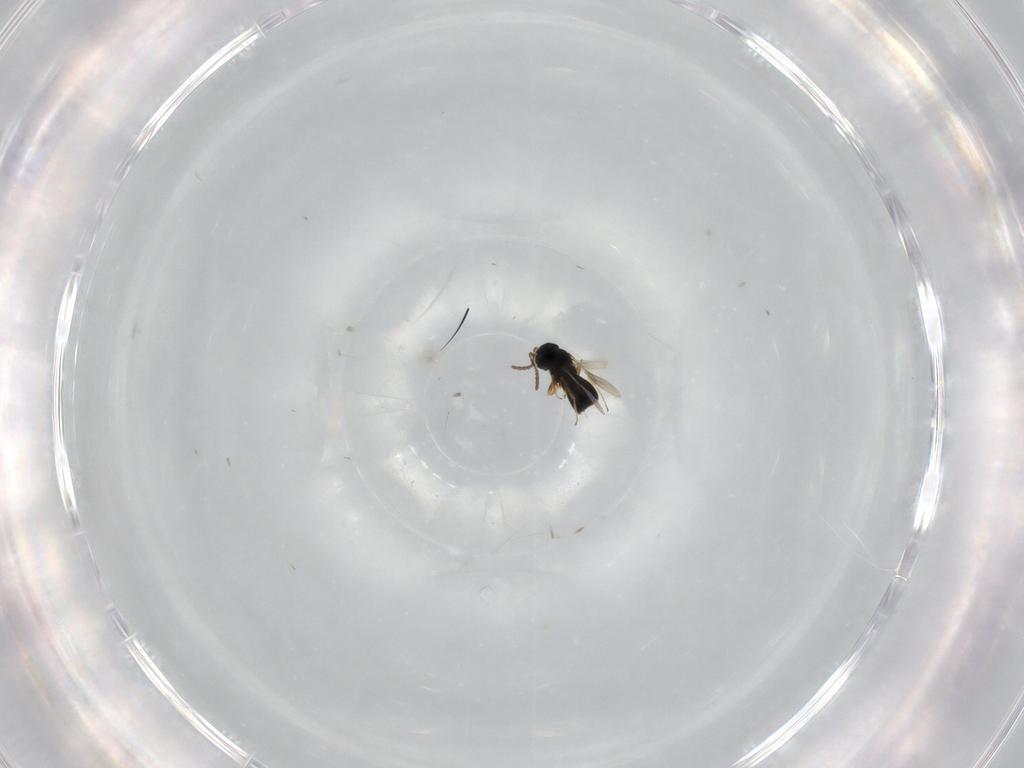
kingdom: Animalia
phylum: Arthropoda
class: Insecta
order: Hymenoptera
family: Braconidae
